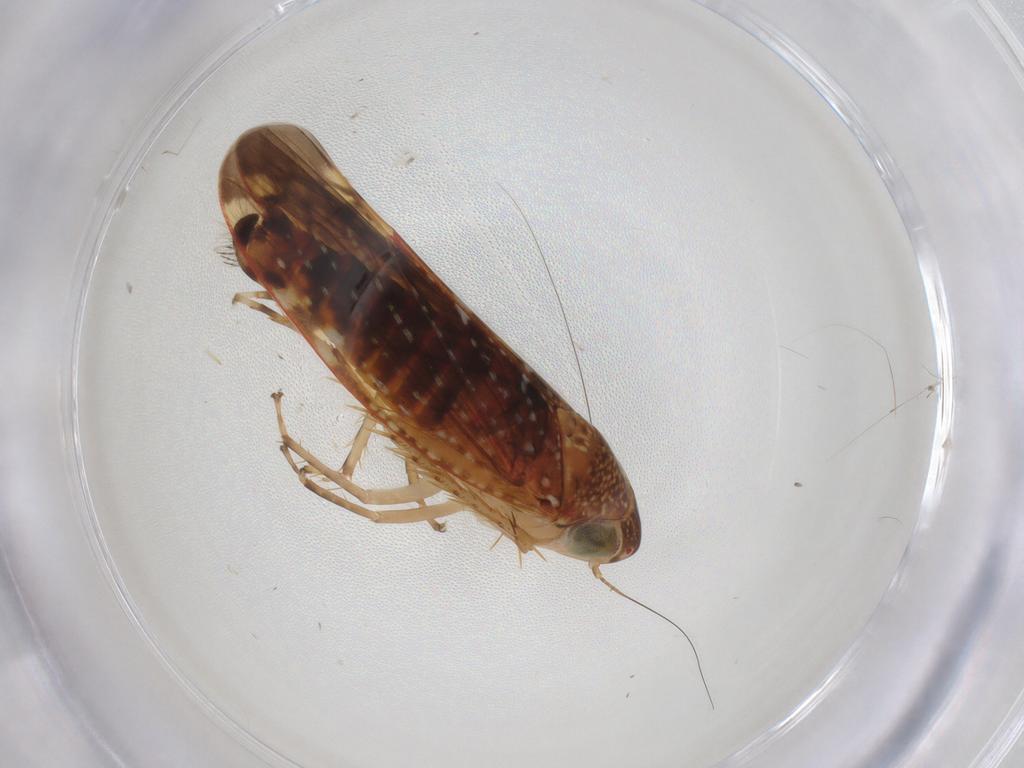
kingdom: Animalia
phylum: Arthropoda
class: Insecta
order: Hemiptera
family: Cicadellidae
